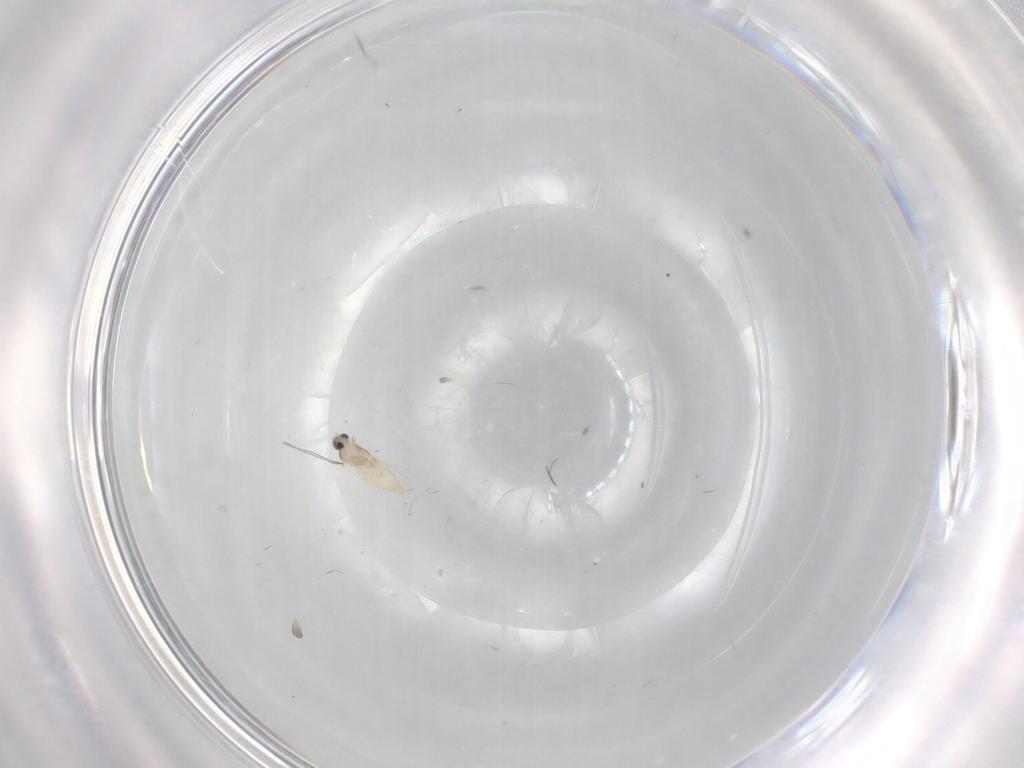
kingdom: Animalia
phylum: Arthropoda
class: Insecta
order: Diptera
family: Cecidomyiidae
